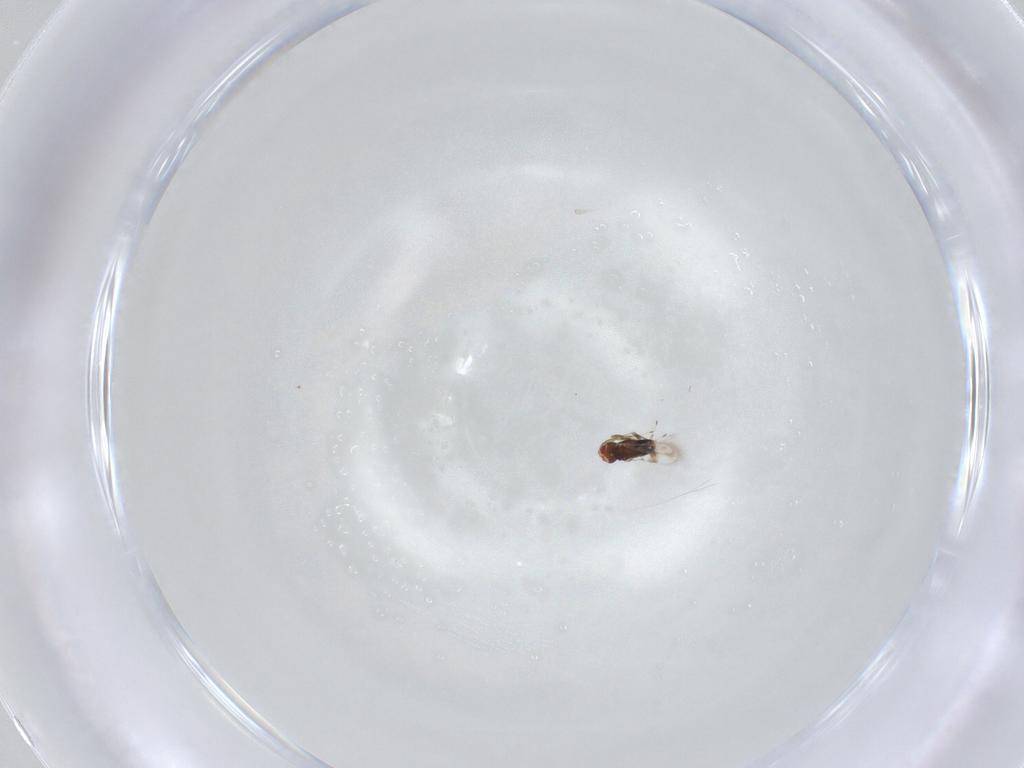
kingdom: Animalia
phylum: Arthropoda
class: Insecta
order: Hymenoptera
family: Azotidae
